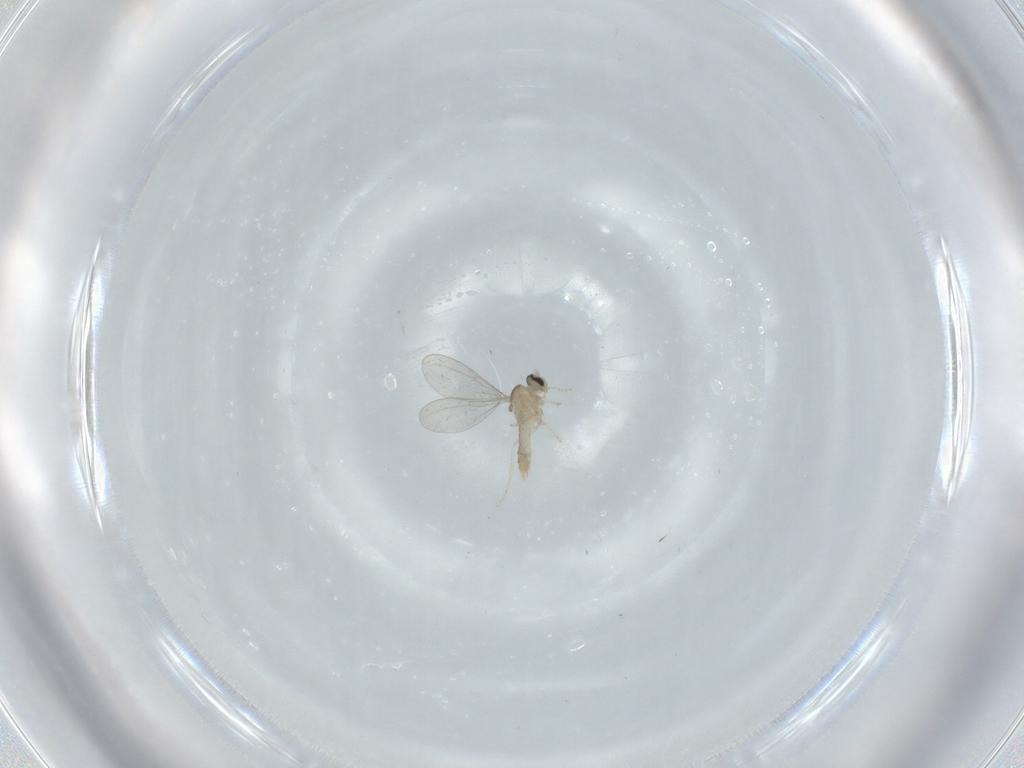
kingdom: Animalia
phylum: Arthropoda
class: Insecta
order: Diptera
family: Cecidomyiidae
